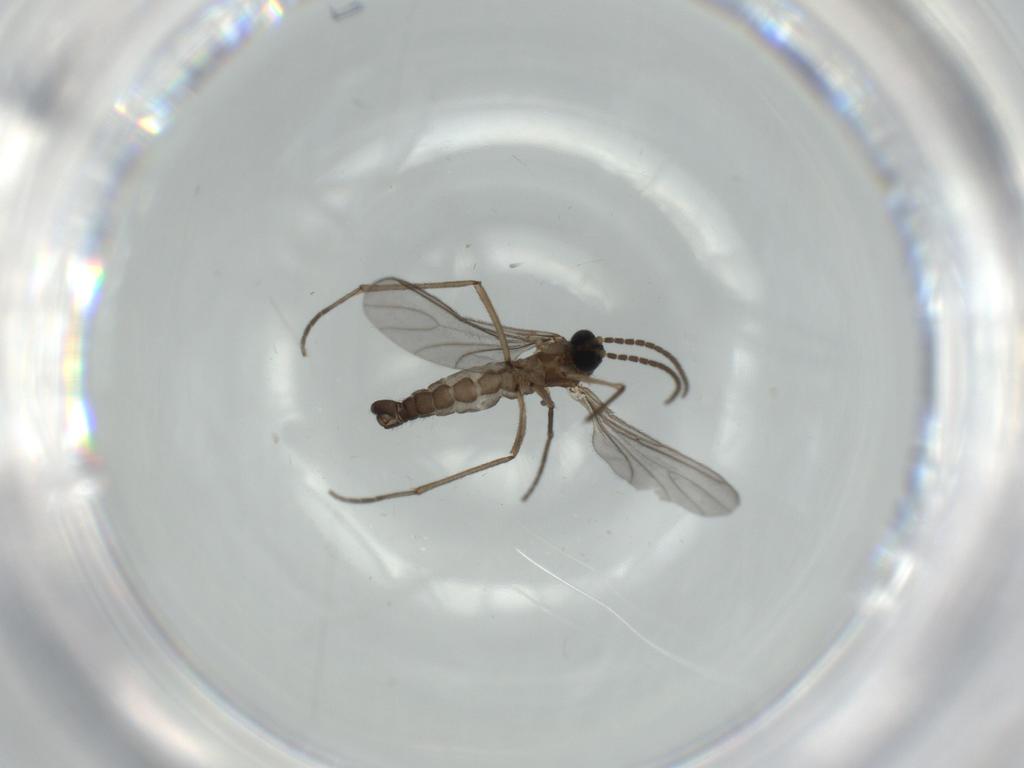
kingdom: Animalia
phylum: Arthropoda
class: Insecta
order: Diptera
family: Sciaridae
